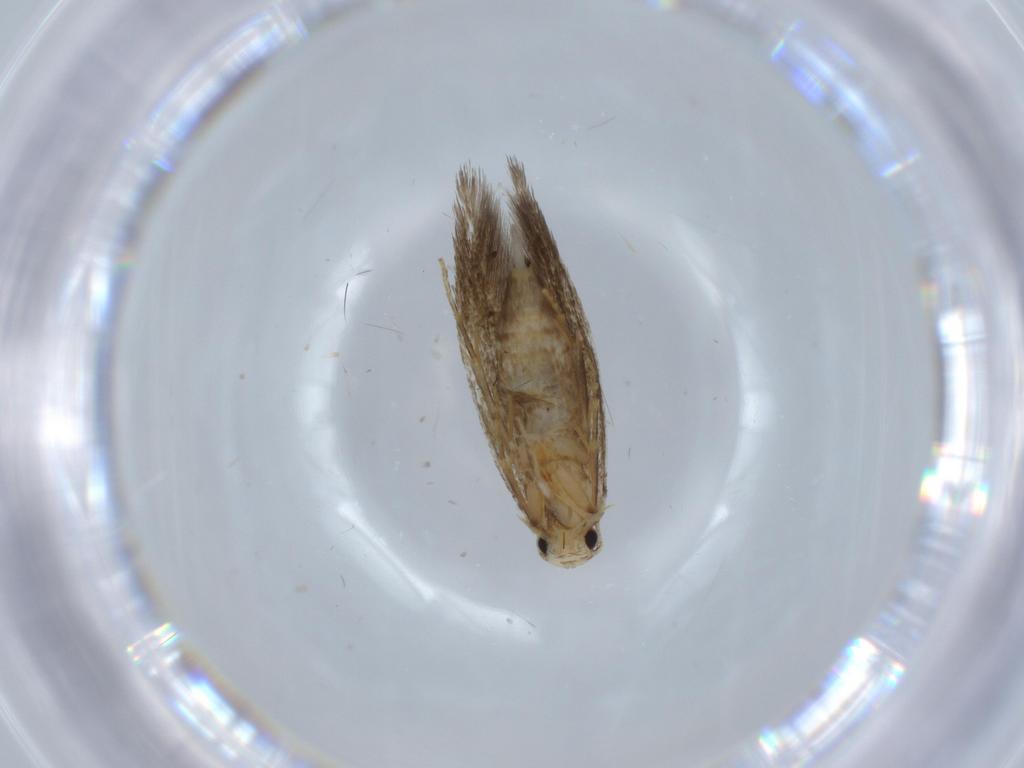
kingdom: Animalia
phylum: Arthropoda
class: Insecta
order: Lepidoptera
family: Tineidae
